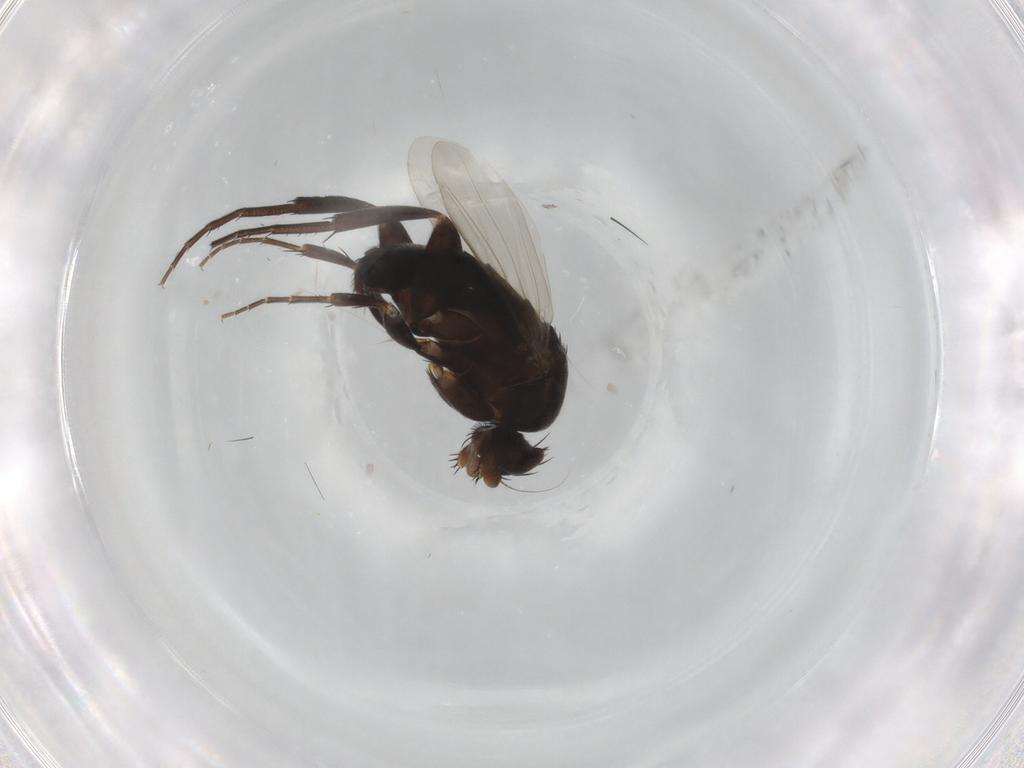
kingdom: Animalia
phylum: Arthropoda
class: Insecta
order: Diptera
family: Phoridae
